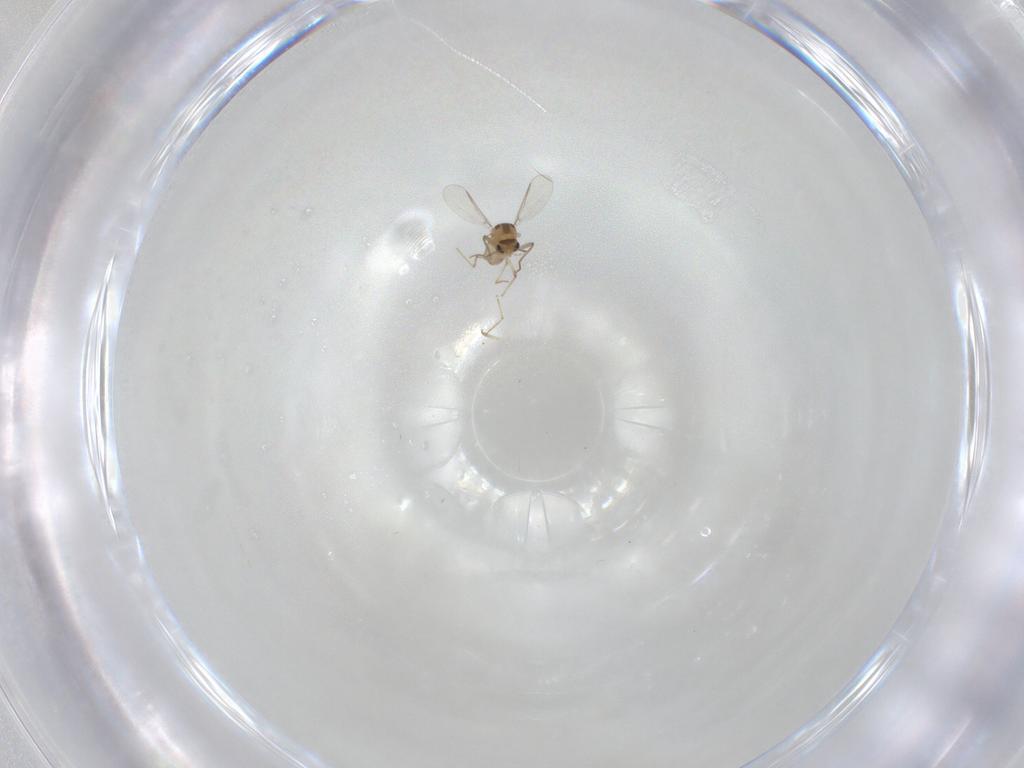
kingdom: Animalia
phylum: Arthropoda
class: Insecta
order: Diptera
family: Chironomidae
